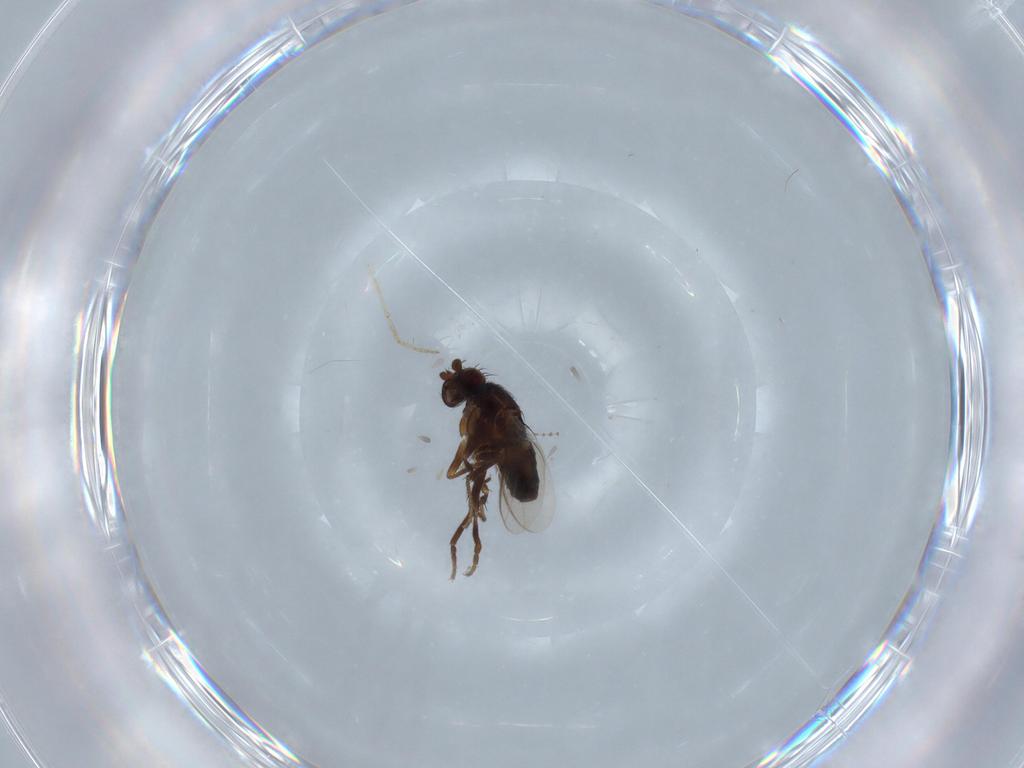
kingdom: Animalia
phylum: Arthropoda
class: Insecta
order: Diptera
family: Sphaeroceridae
